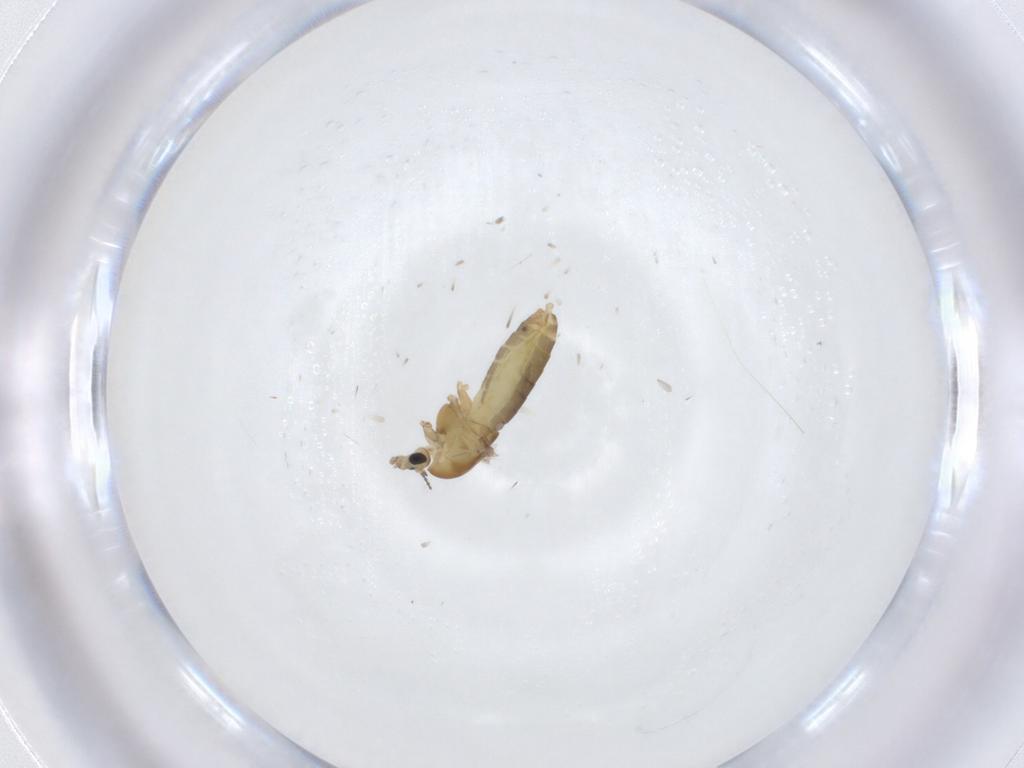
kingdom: Animalia
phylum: Arthropoda
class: Insecta
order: Diptera
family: Chironomidae
